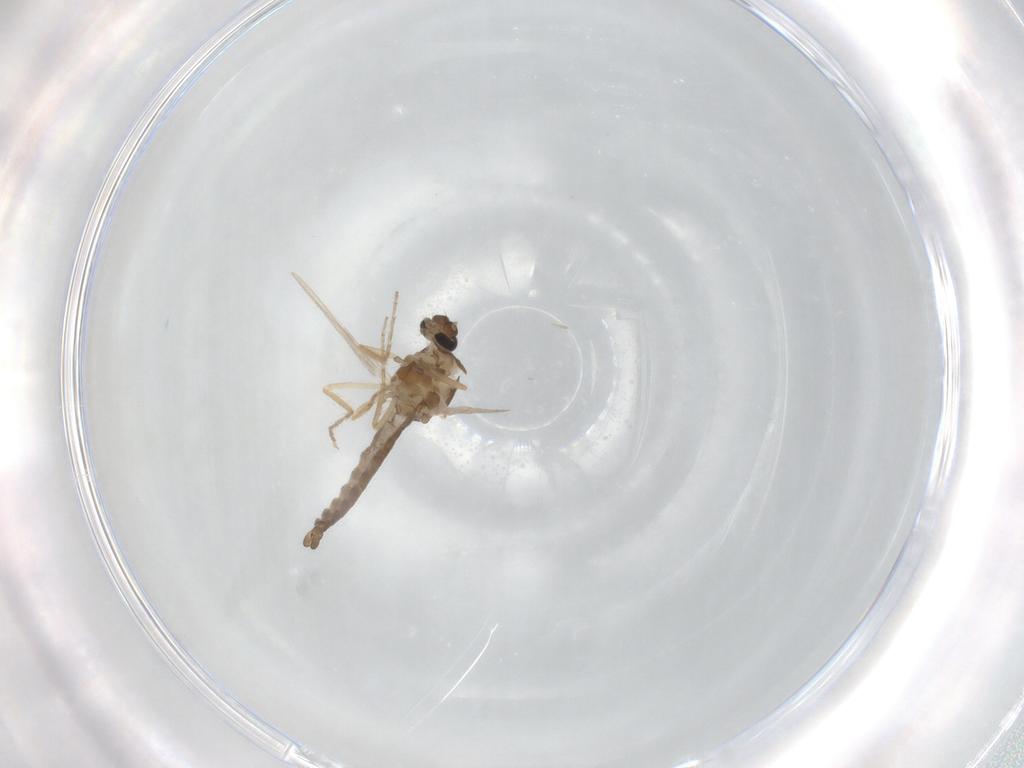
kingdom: Animalia
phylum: Arthropoda
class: Insecta
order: Diptera
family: Ceratopogonidae
